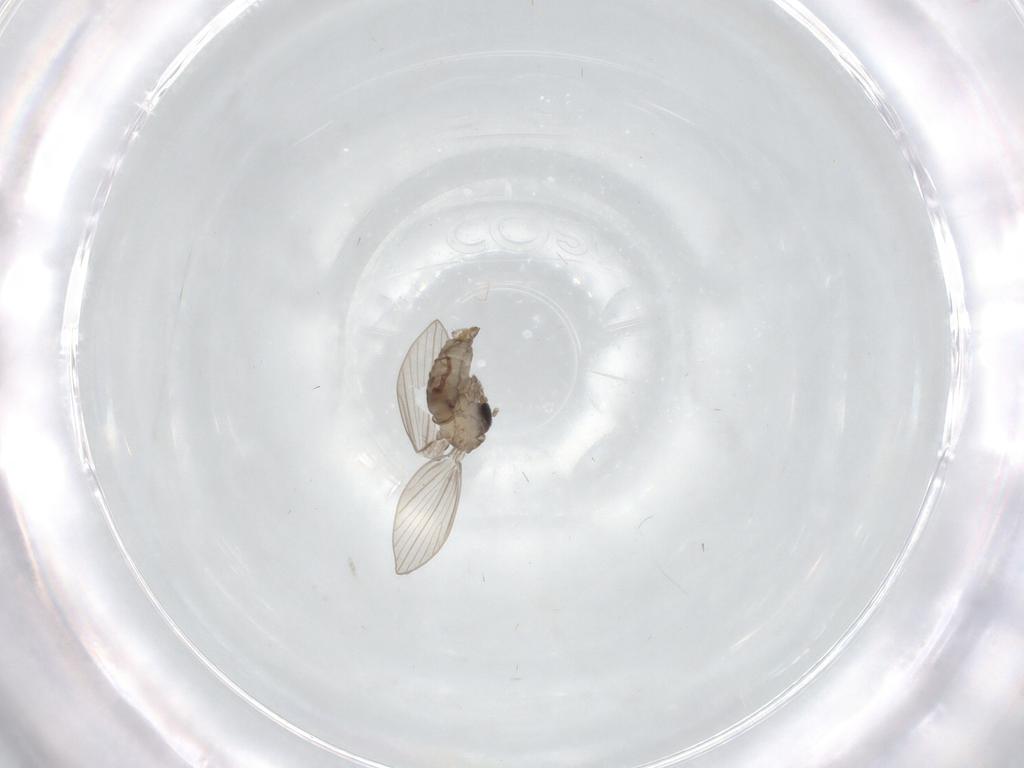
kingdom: Animalia
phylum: Arthropoda
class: Insecta
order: Diptera
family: Psychodidae
